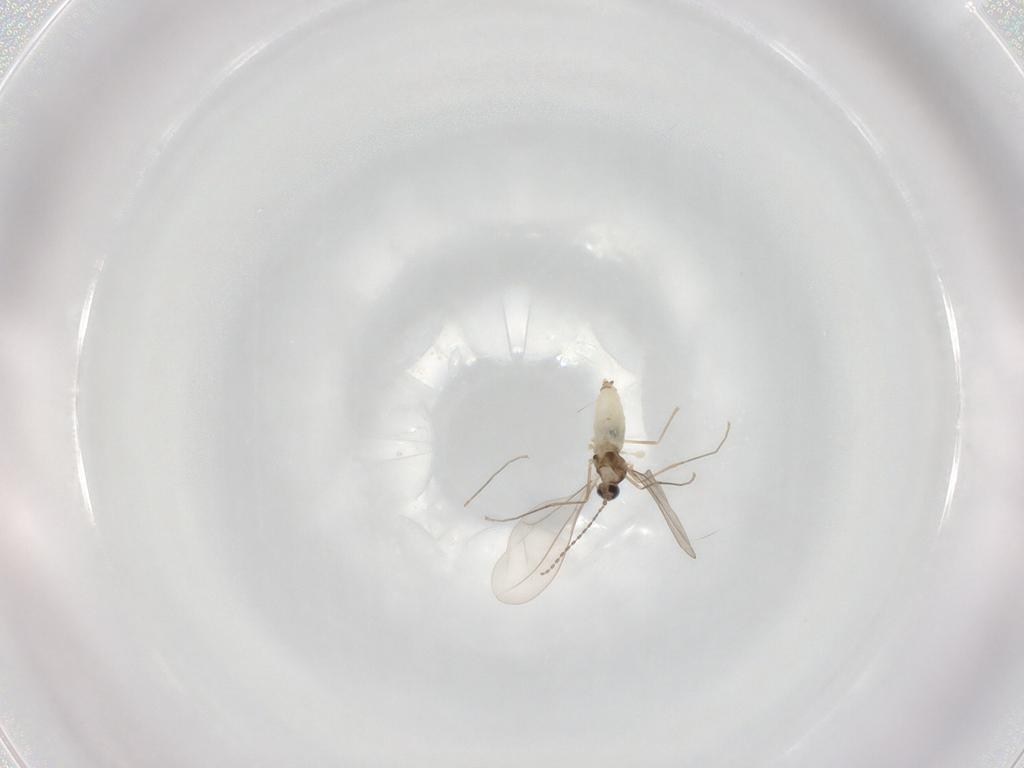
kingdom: Animalia
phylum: Arthropoda
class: Insecta
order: Diptera
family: Cecidomyiidae
